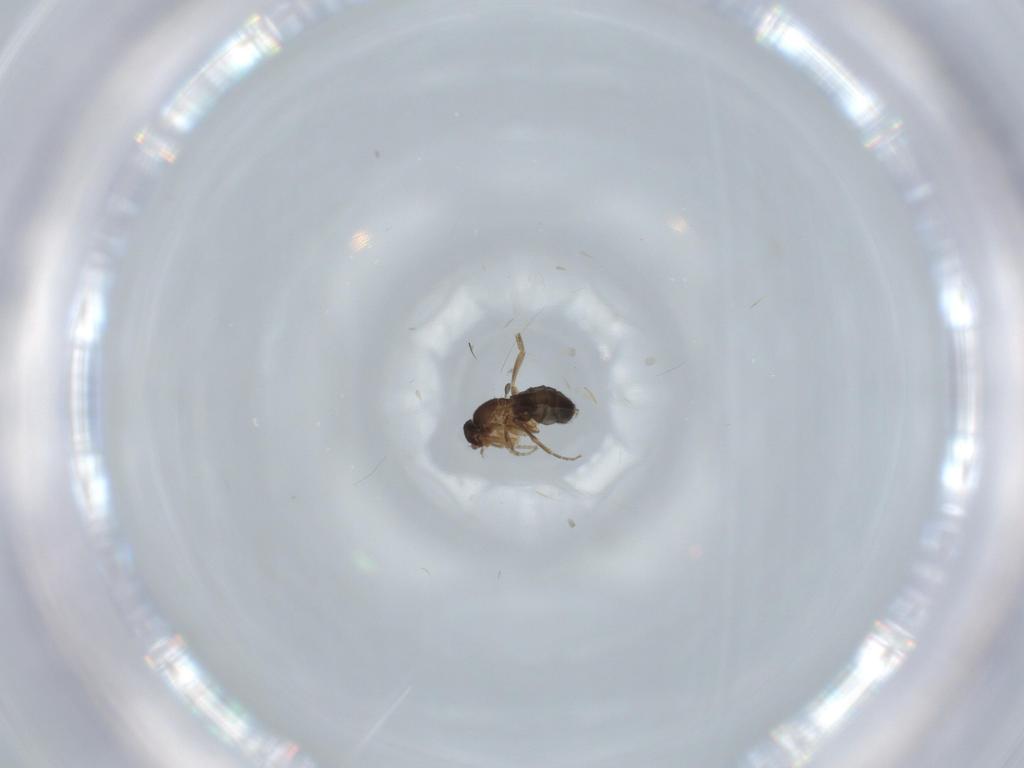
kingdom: Animalia
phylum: Arthropoda
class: Insecta
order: Diptera
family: Phoridae
